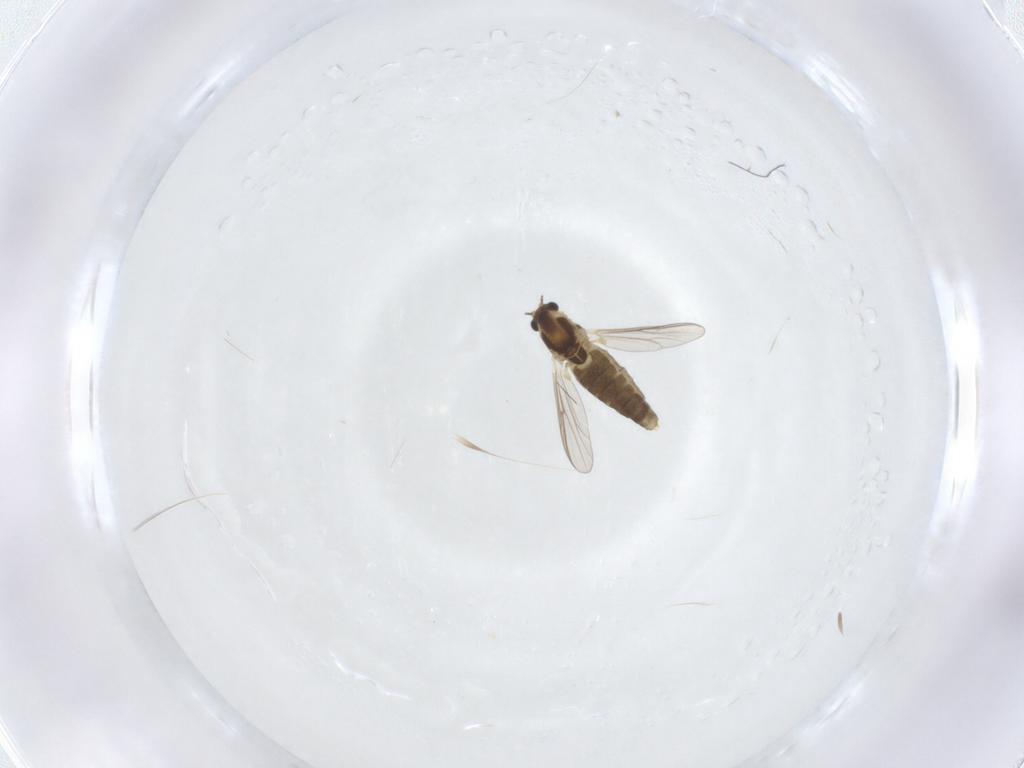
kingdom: Animalia
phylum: Arthropoda
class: Insecta
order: Diptera
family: Chironomidae
